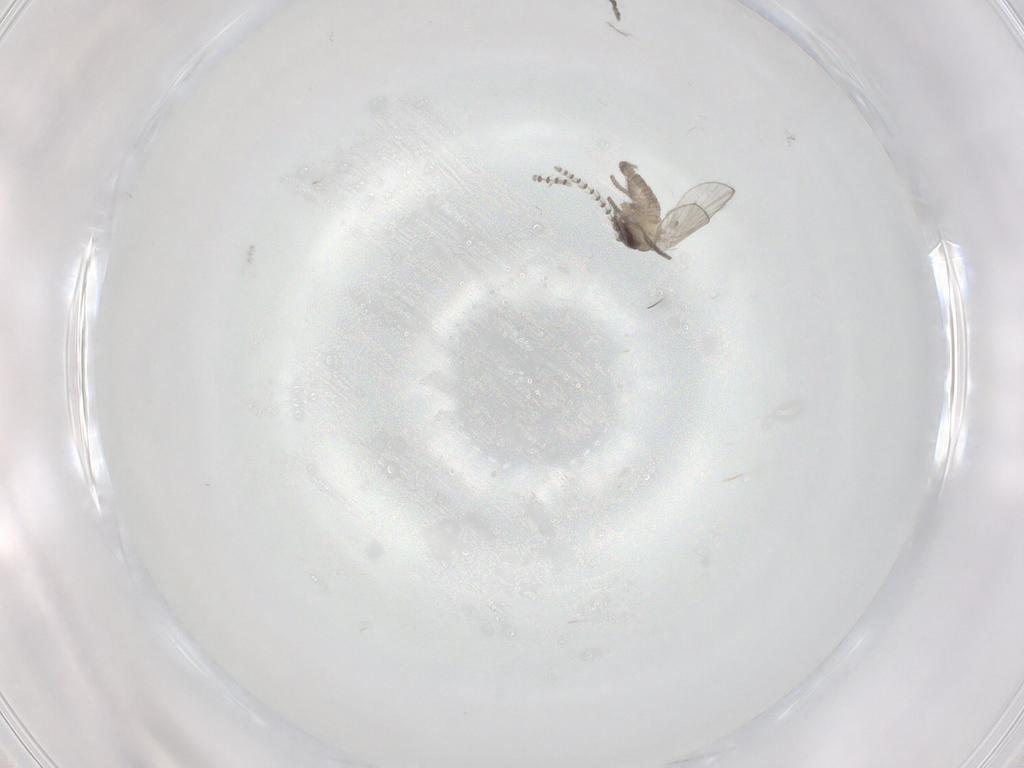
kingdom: Animalia
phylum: Arthropoda
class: Insecta
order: Diptera
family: Psychodidae
